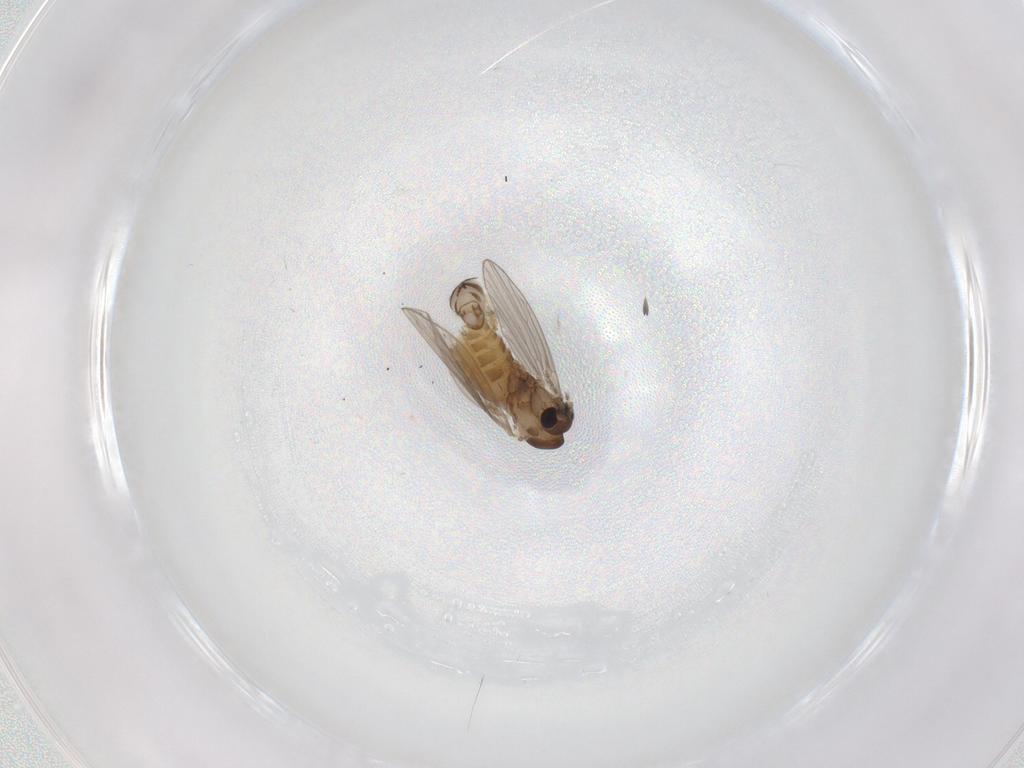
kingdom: Animalia
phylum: Arthropoda
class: Insecta
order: Diptera
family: Psychodidae
